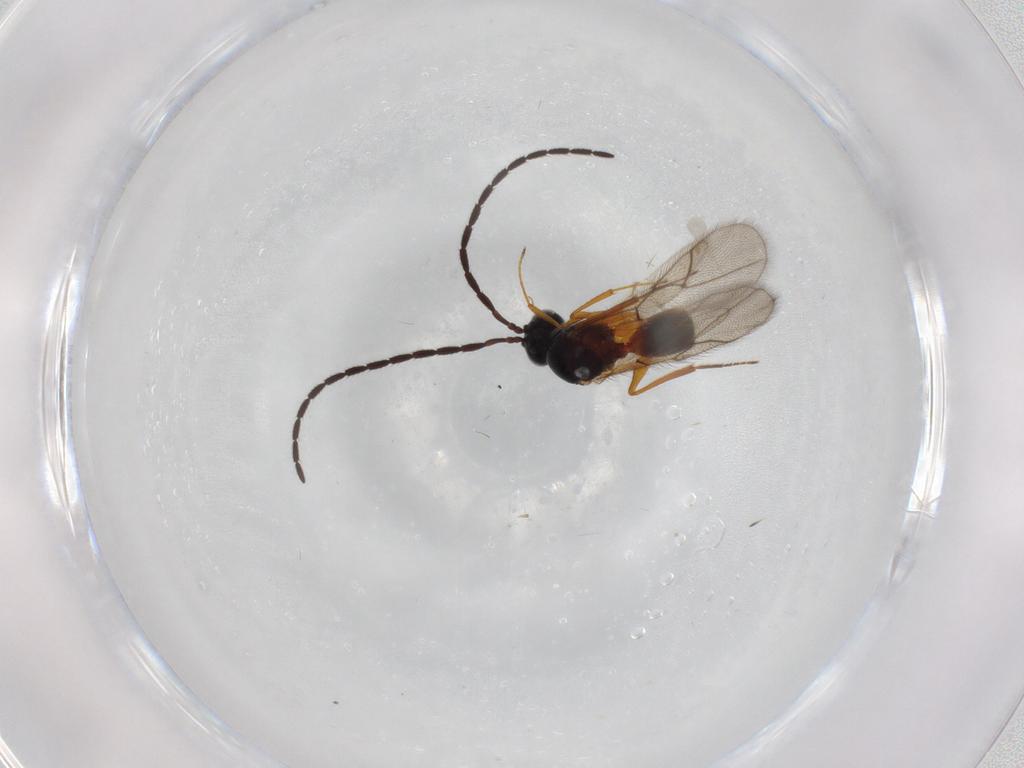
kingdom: Animalia
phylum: Arthropoda
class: Insecta
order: Hymenoptera
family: Figitidae
